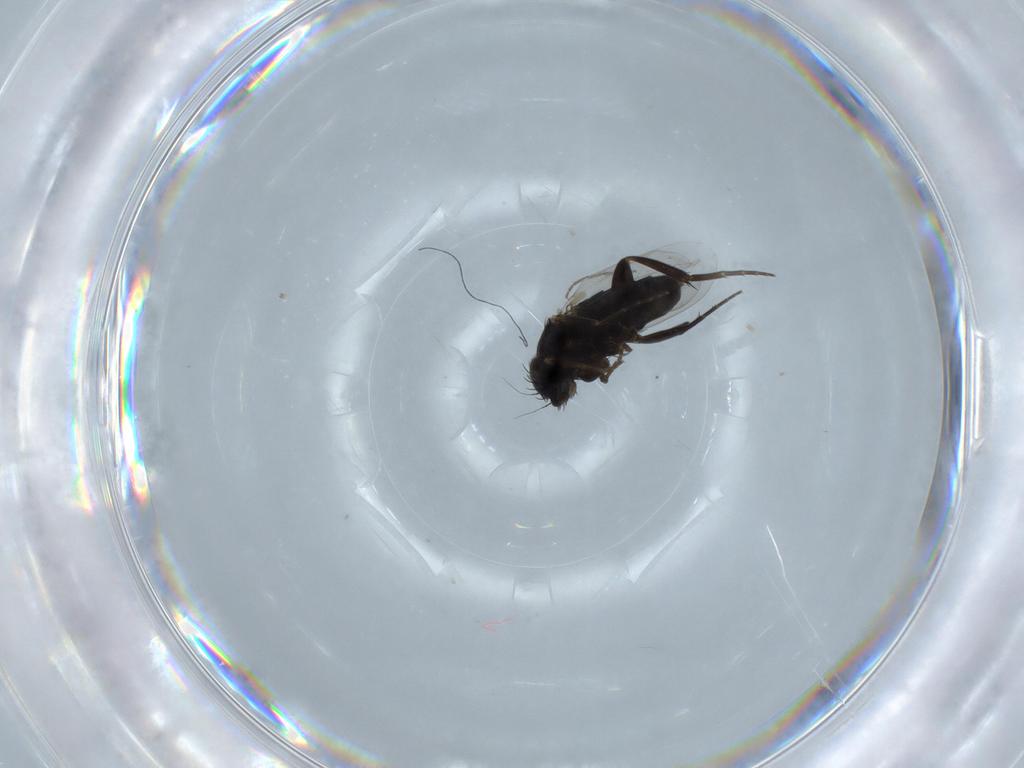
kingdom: Animalia
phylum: Arthropoda
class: Insecta
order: Diptera
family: Phoridae
